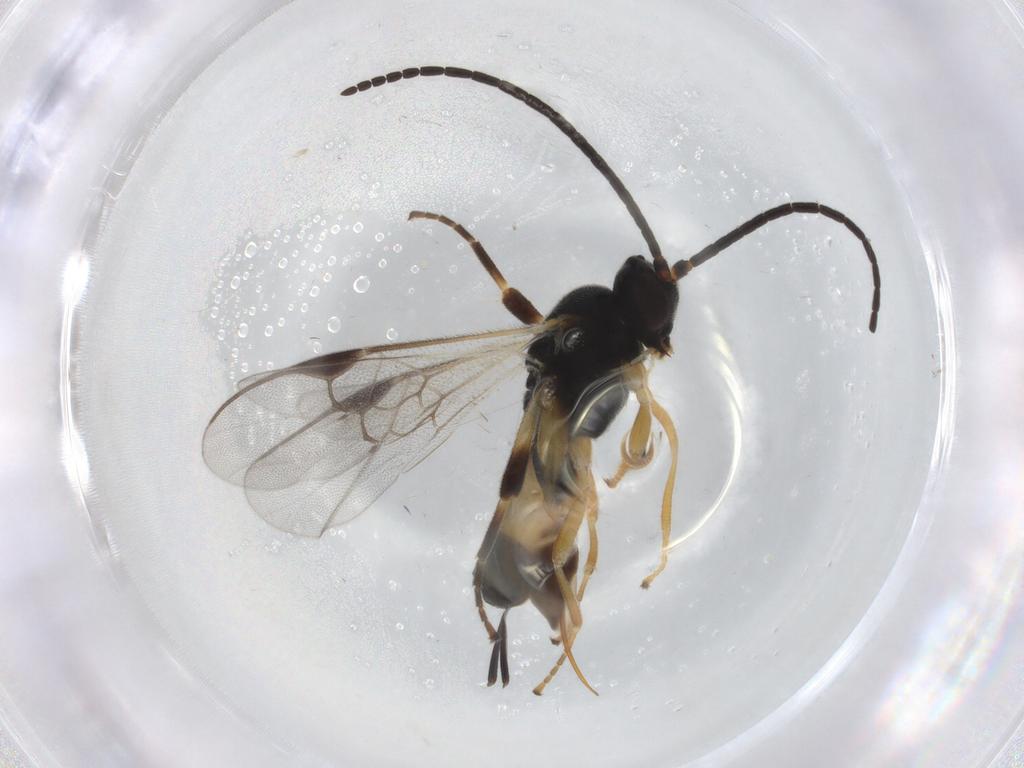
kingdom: Animalia
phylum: Arthropoda
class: Insecta
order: Hymenoptera
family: Braconidae
